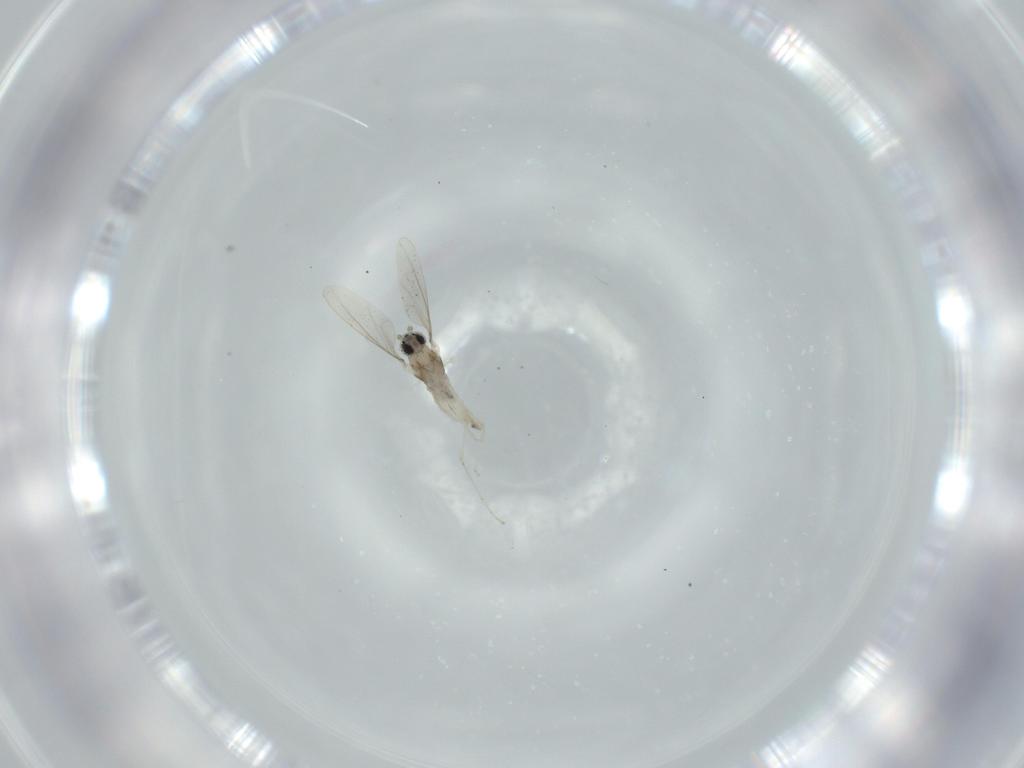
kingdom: Animalia
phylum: Arthropoda
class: Insecta
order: Diptera
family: Cecidomyiidae
